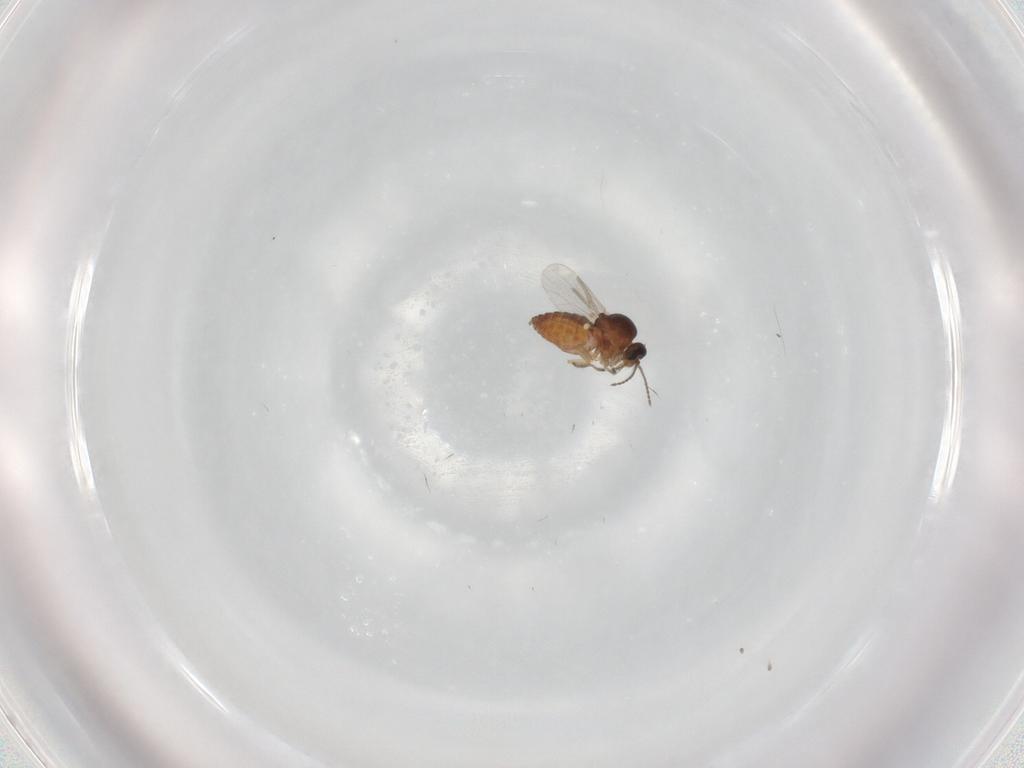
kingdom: Animalia
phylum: Arthropoda
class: Insecta
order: Diptera
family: Ceratopogonidae
